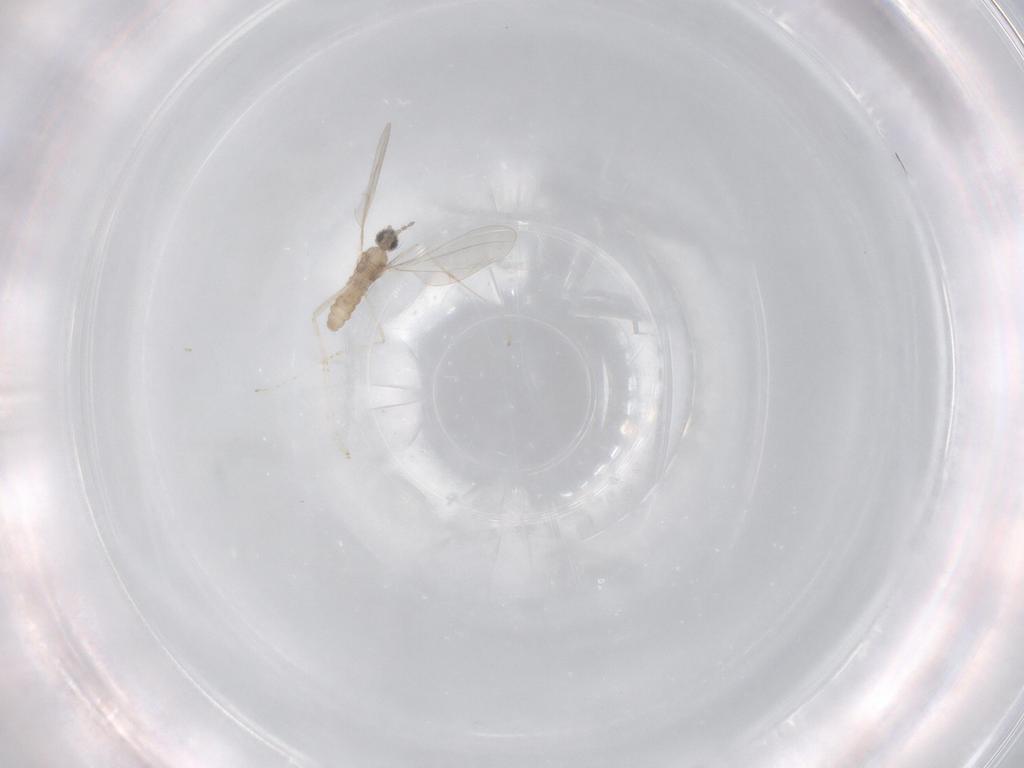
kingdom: Animalia
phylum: Arthropoda
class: Insecta
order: Diptera
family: Cecidomyiidae
